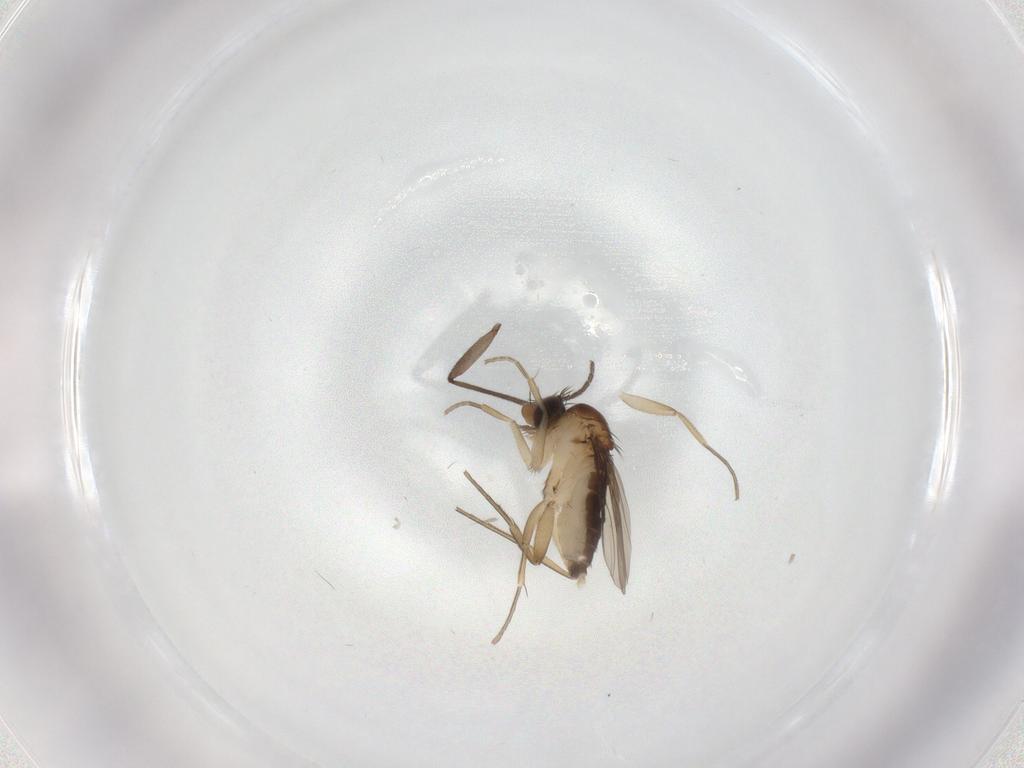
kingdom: Animalia
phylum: Arthropoda
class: Insecta
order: Diptera
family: Phoridae
